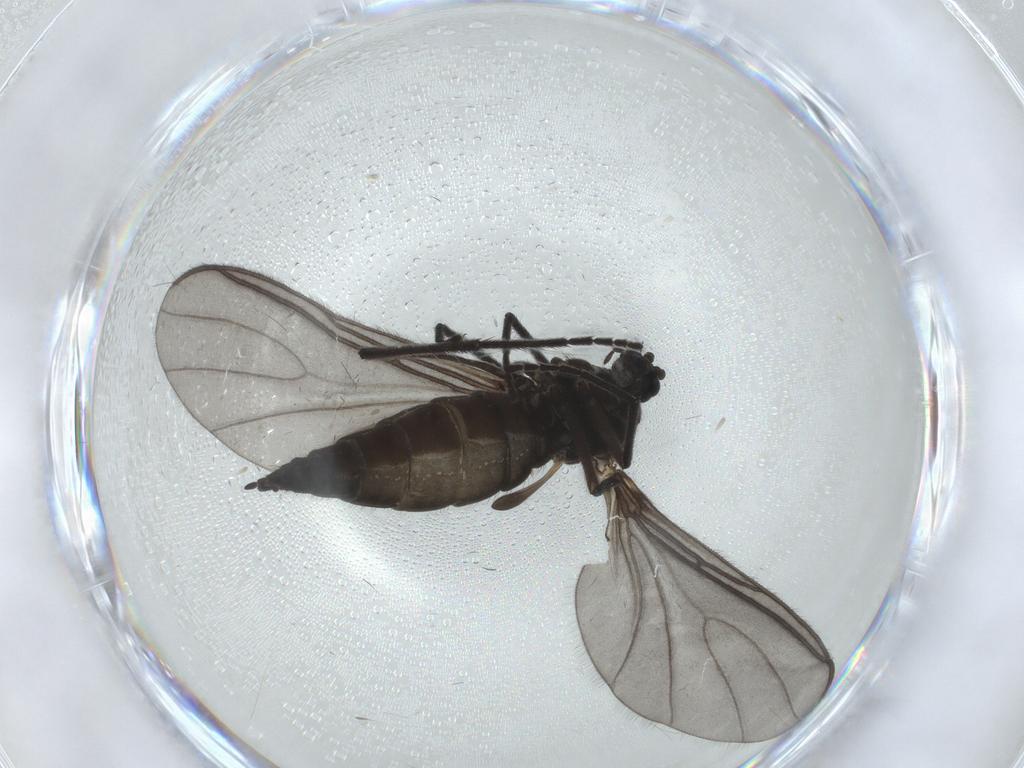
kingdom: Animalia
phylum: Arthropoda
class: Insecta
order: Diptera
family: Sciaridae
